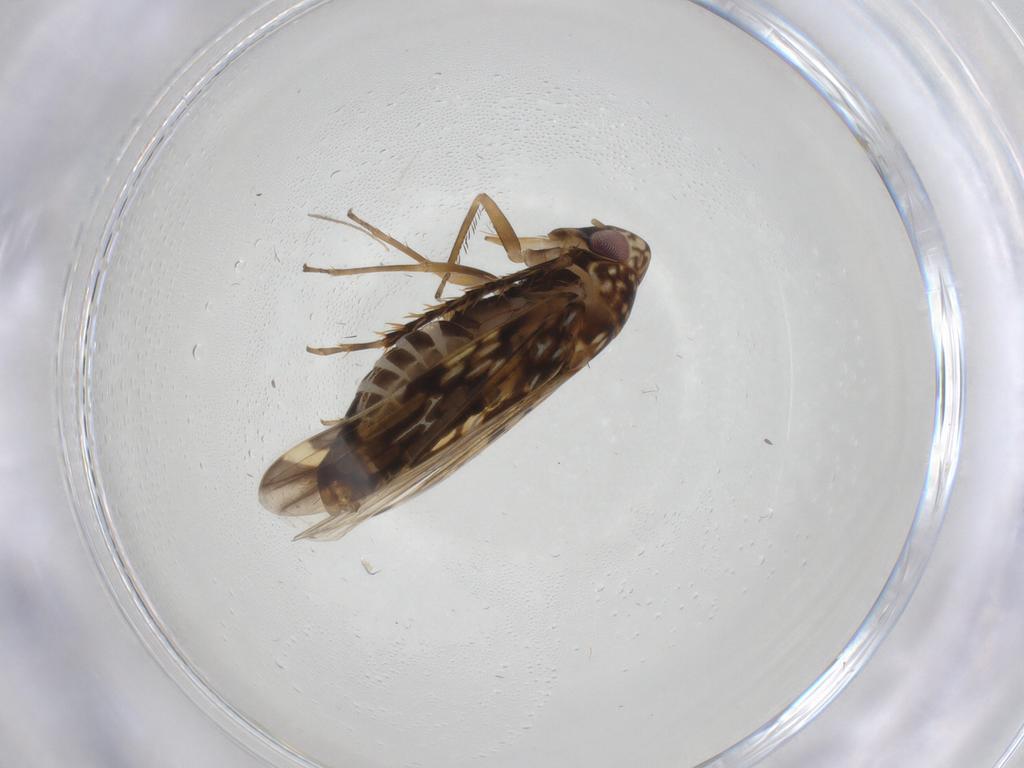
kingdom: Animalia
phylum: Arthropoda
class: Insecta
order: Hemiptera
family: Cicadellidae
